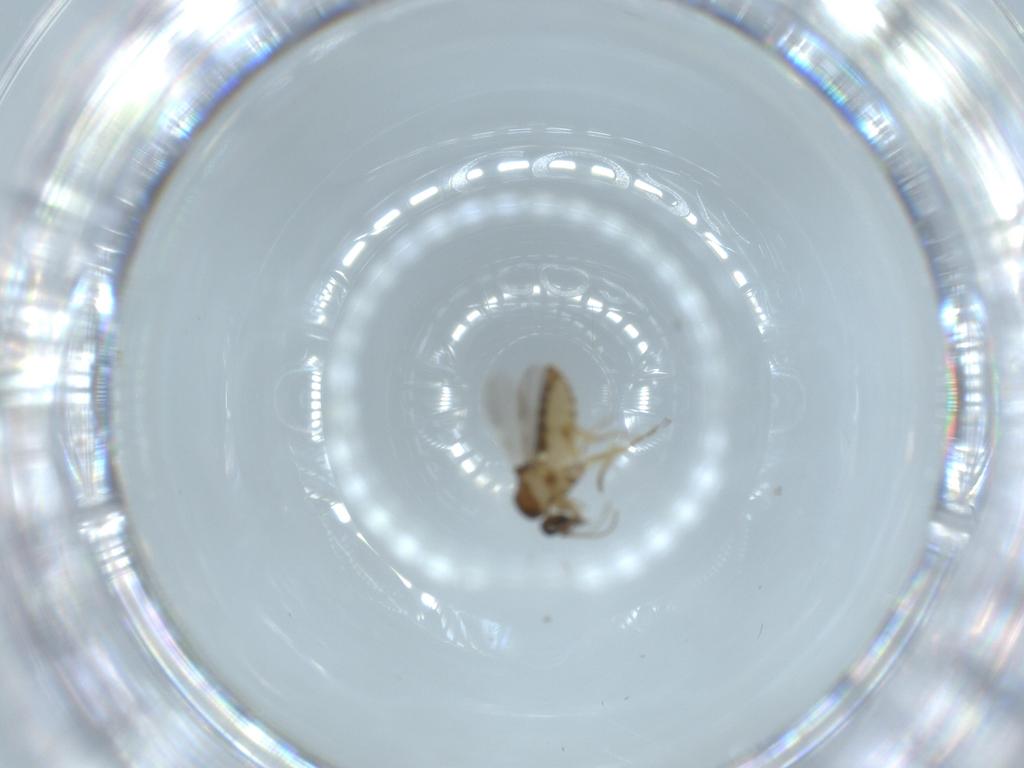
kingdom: Animalia
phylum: Arthropoda
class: Insecta
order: Diptera
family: Ceratopogonidae
